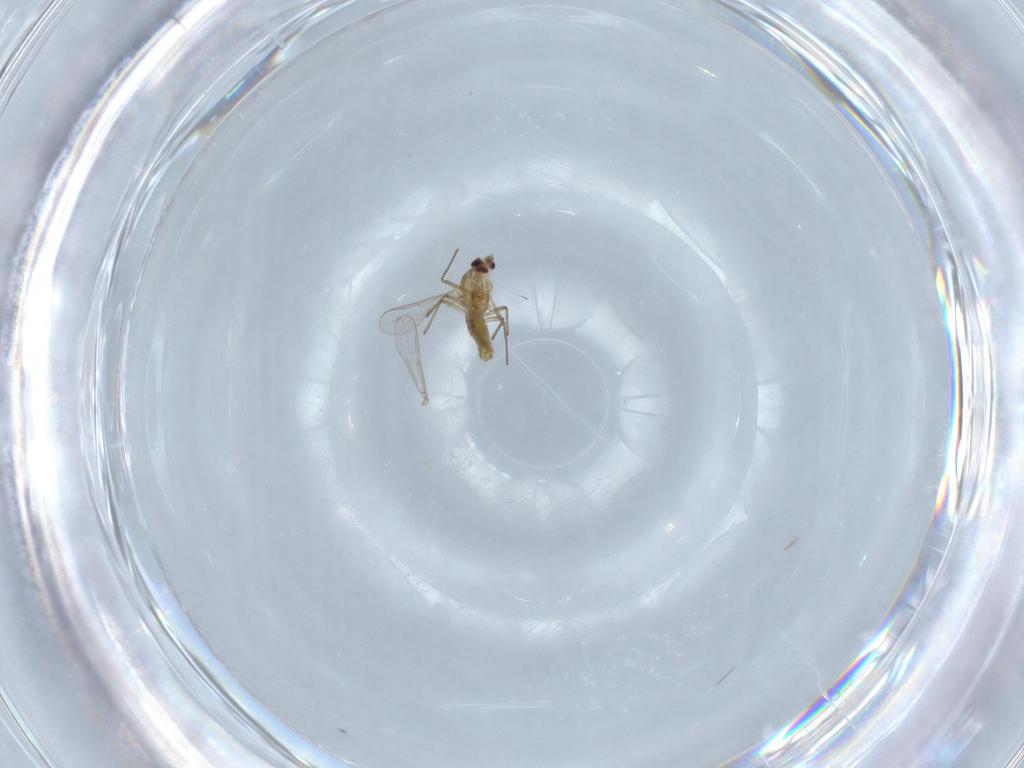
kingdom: Animalia
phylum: Arthropoda
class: Insecta
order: Diptera
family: Chironomidae
